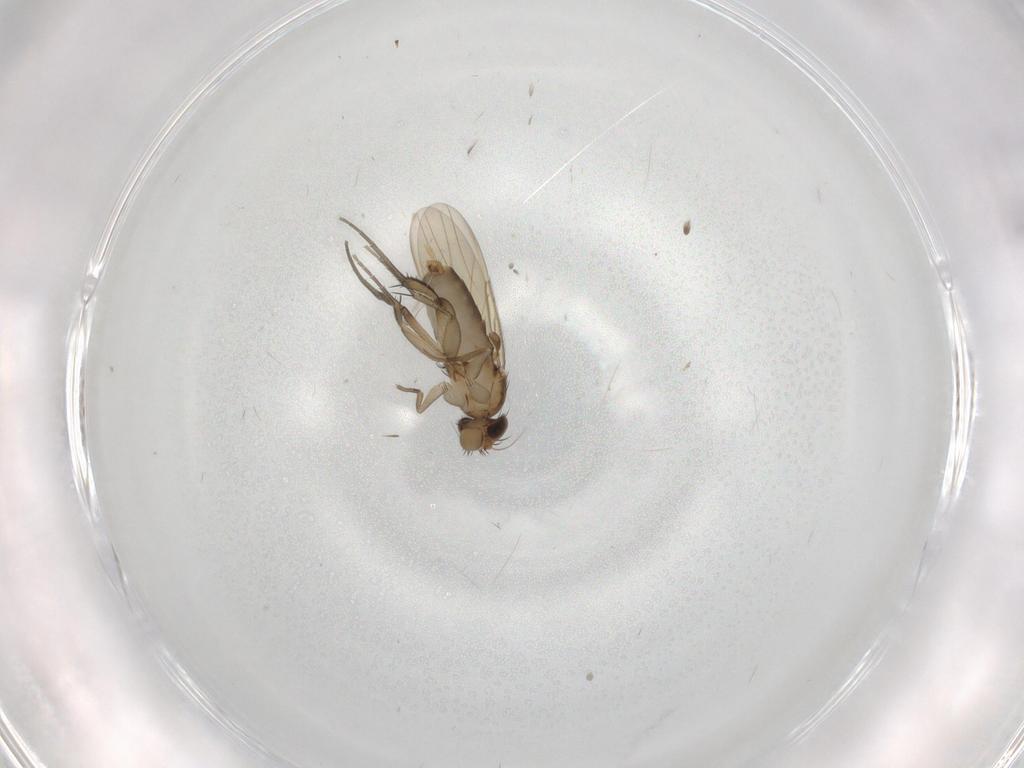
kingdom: Animalia
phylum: Arthropoda
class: Insecta
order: Diptera
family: Phoridae
